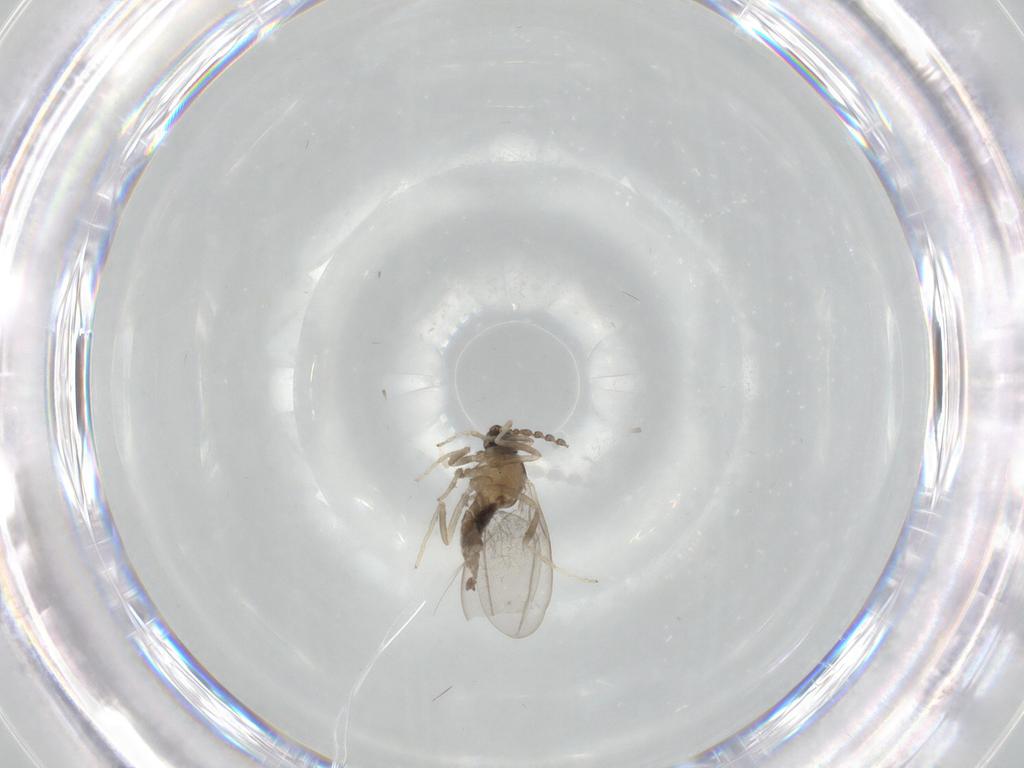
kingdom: Animalia
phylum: Arthropoda
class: Insecta
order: Diptera
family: Cecidomyiidae
